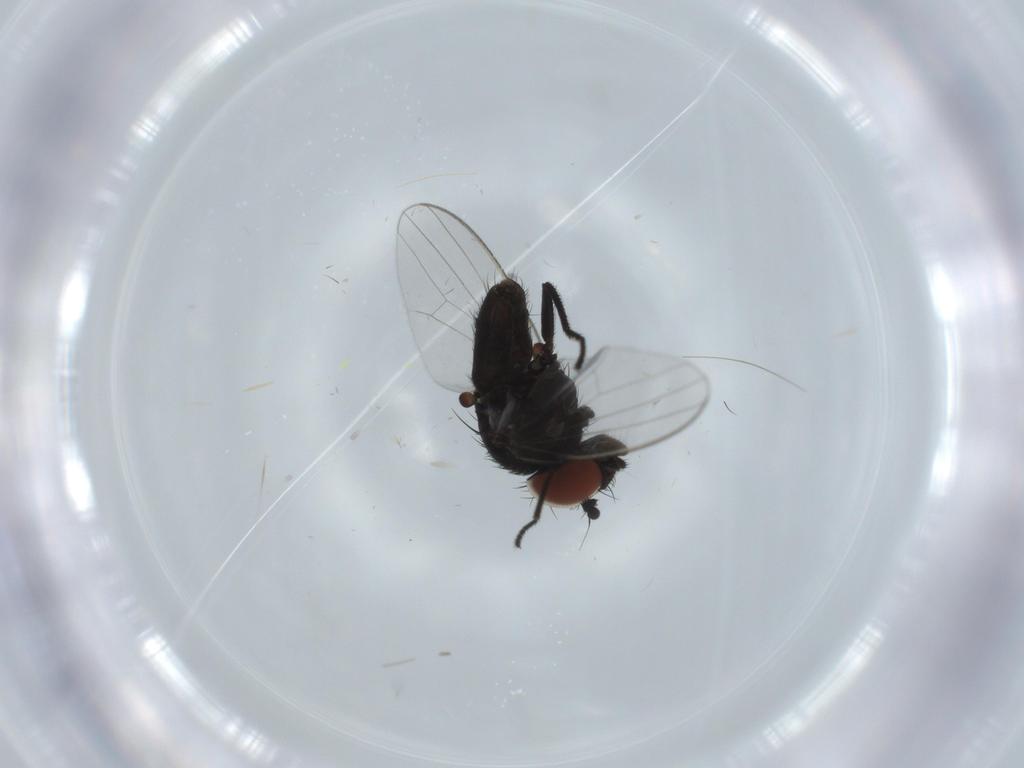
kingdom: Animalia
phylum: Arthropoda
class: Insecta
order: Diptera
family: Milichiidae
